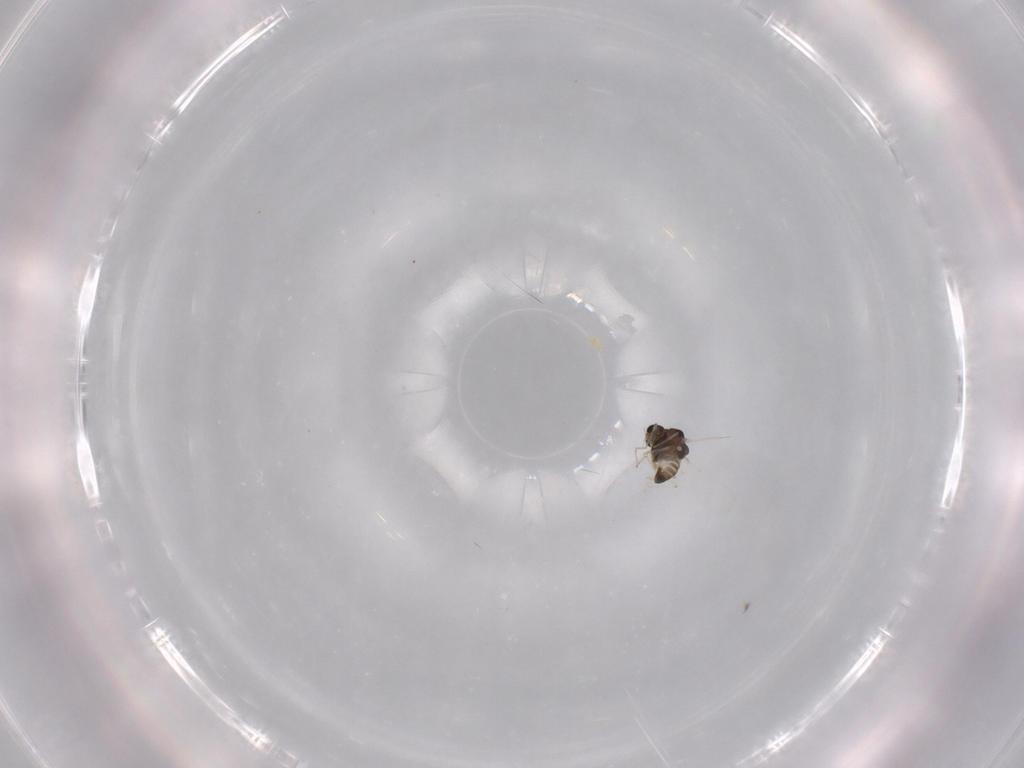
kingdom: Animalia
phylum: Arthropoda
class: Insecta
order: Diptera
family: Chironomidae
